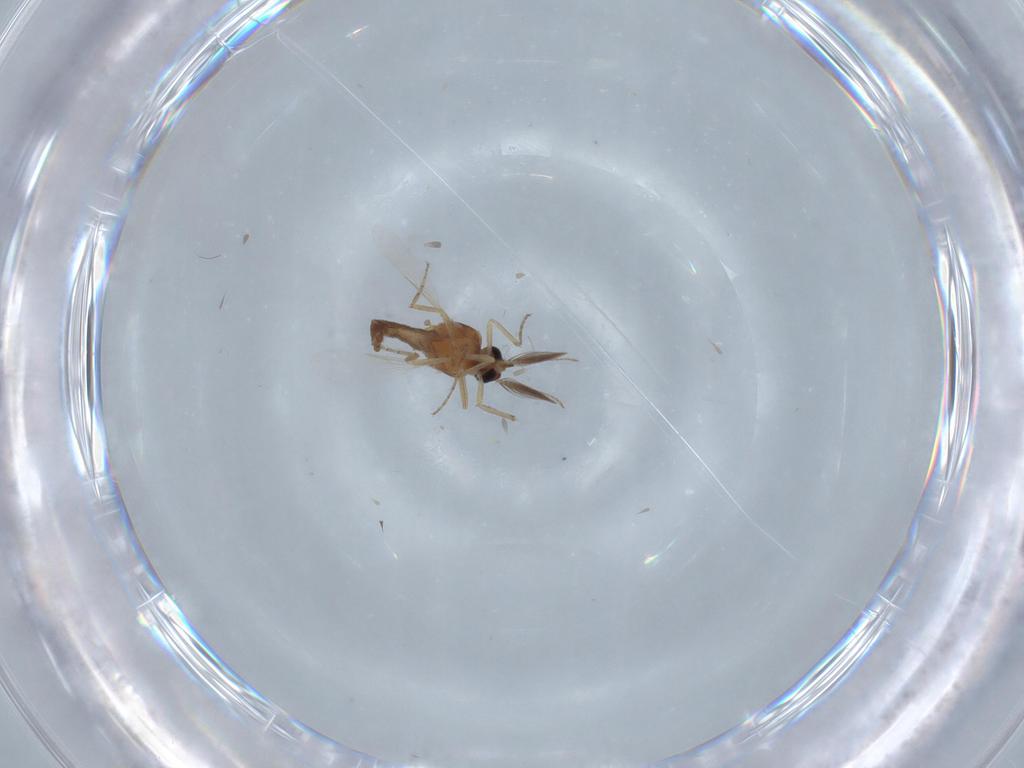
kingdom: Animalia
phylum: Arthropoda
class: Insecta
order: Diptera
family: Ceratopogonidae
